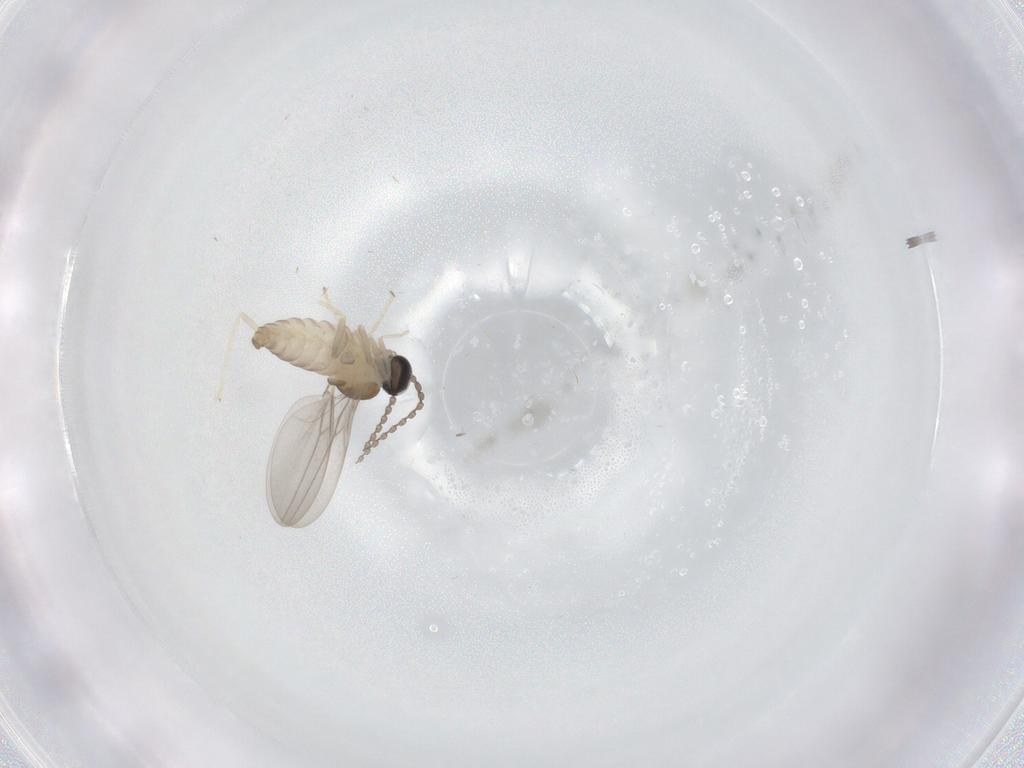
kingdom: Animalia
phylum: Arthropoda
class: Insecta
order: Diptera
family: Cecidomyiidae
